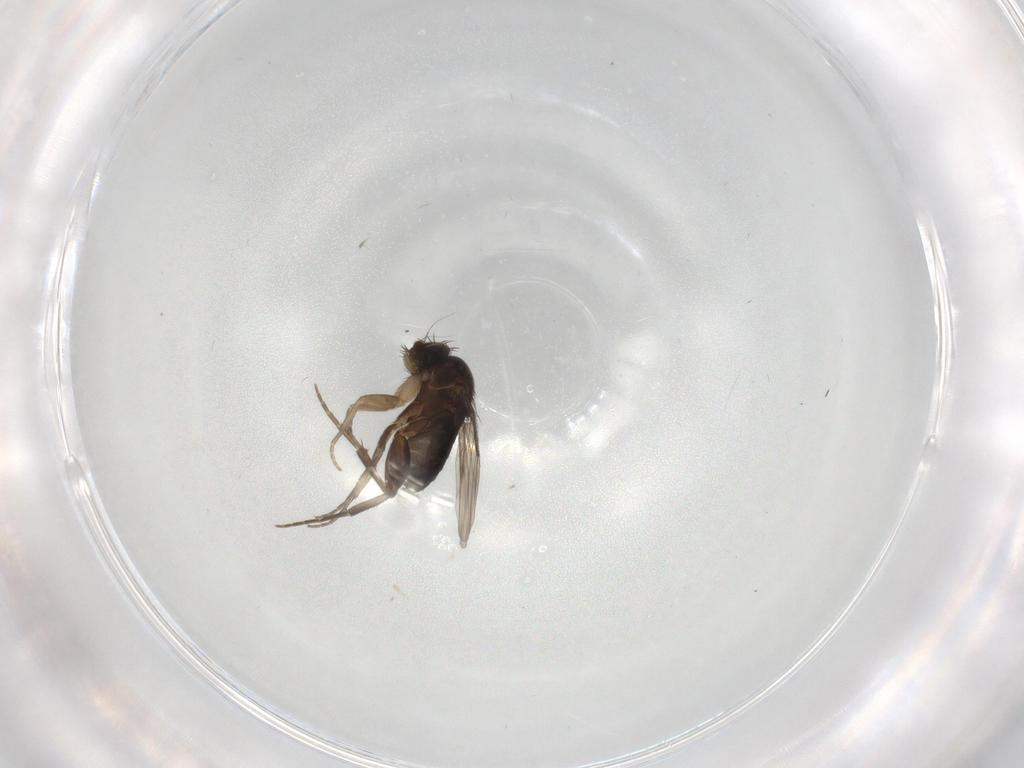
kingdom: Animalia
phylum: Arthropoda
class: Insecta
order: Diptera
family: Phoridae
